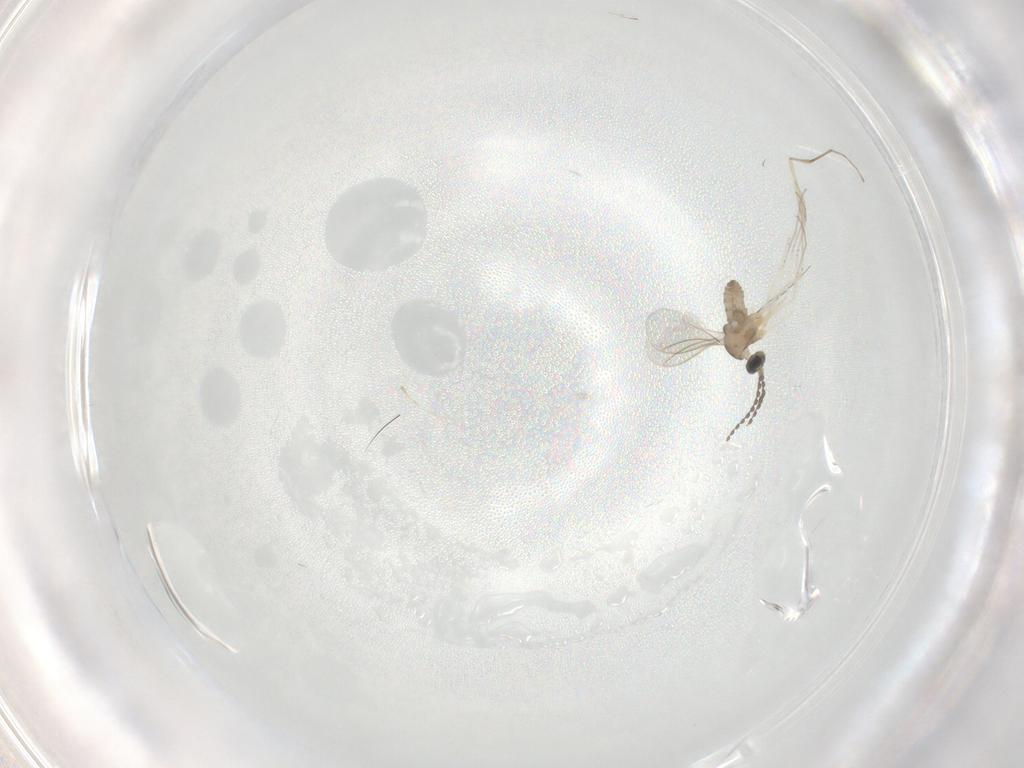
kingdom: Animalia
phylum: Arthropoda
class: Insecta
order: Diptera
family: Cecidomyiidae
